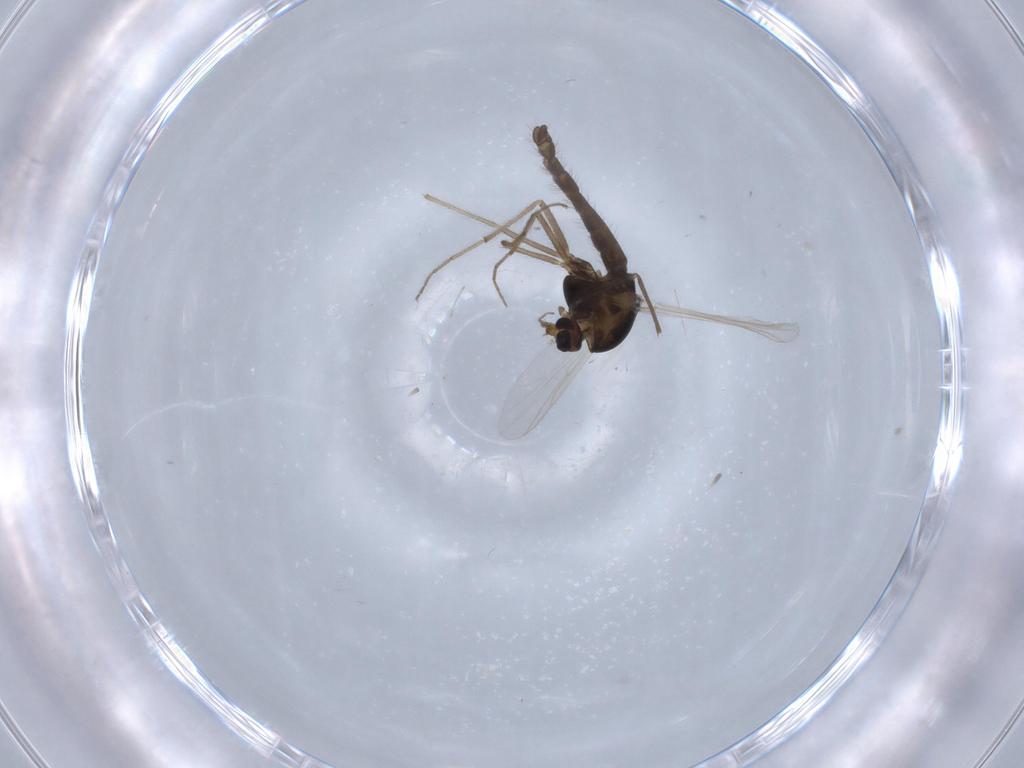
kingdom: Animalia
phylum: Arthropoda
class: Insecta
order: Diptera
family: Chironomidae
